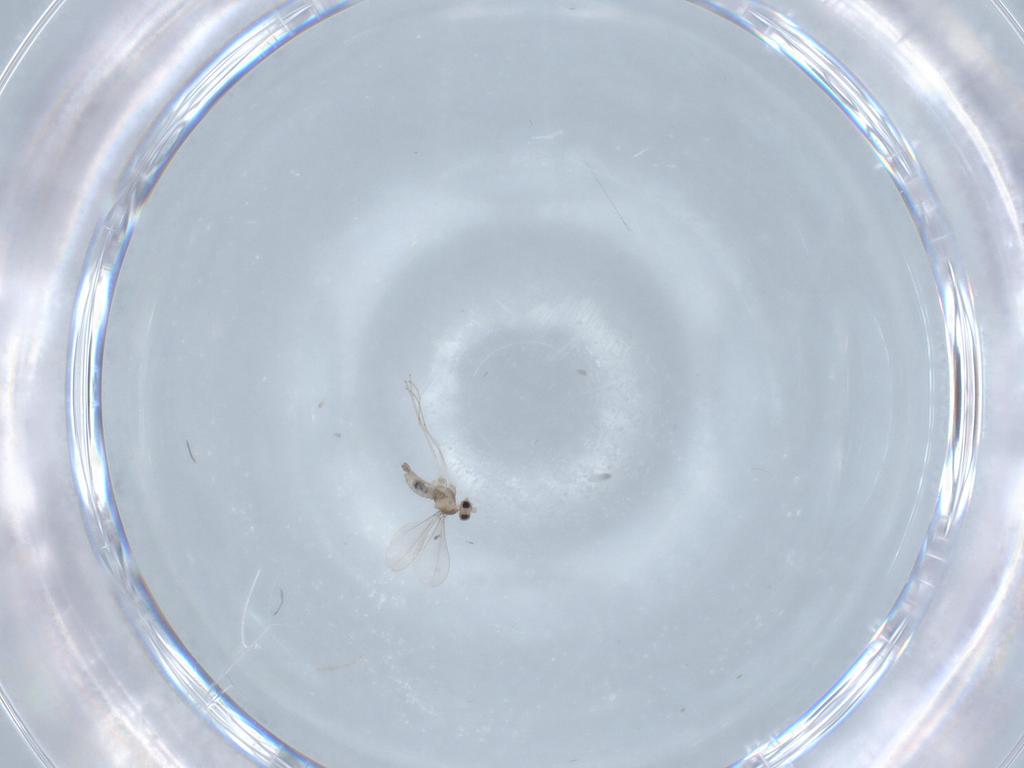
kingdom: Animalia
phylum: Arthropoda
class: Insecta
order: Diptera
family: Cecidomyiidae
